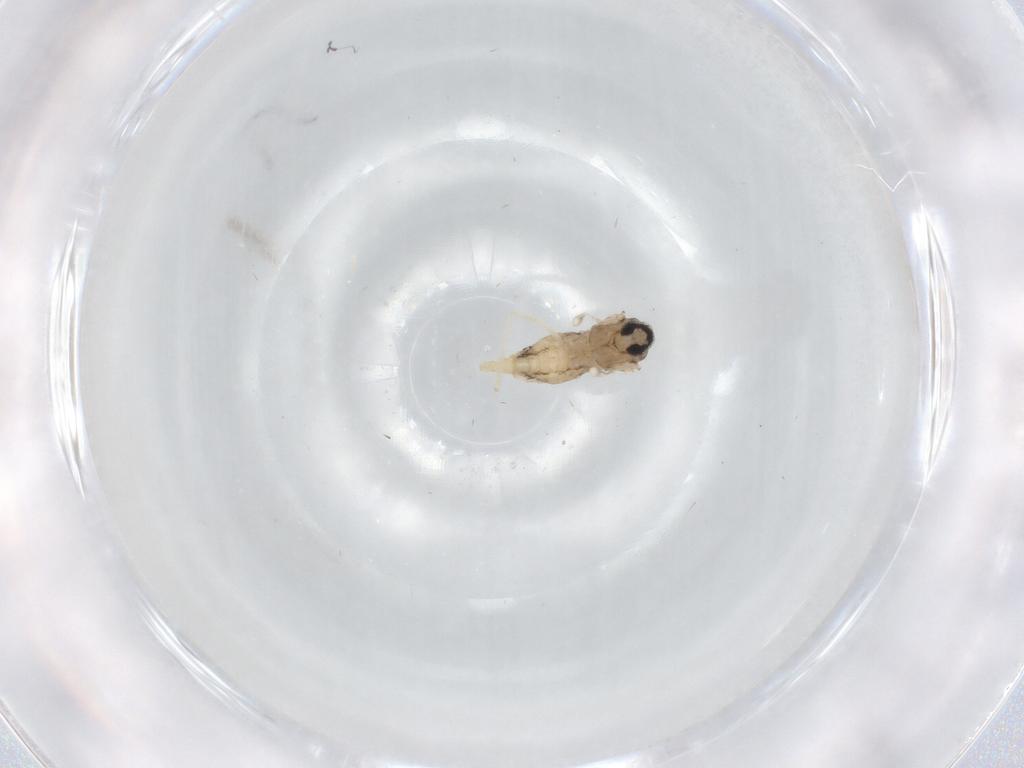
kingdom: Animalia
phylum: Arthropoda
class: Insecta
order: Diptera
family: Cecidomyiidae
